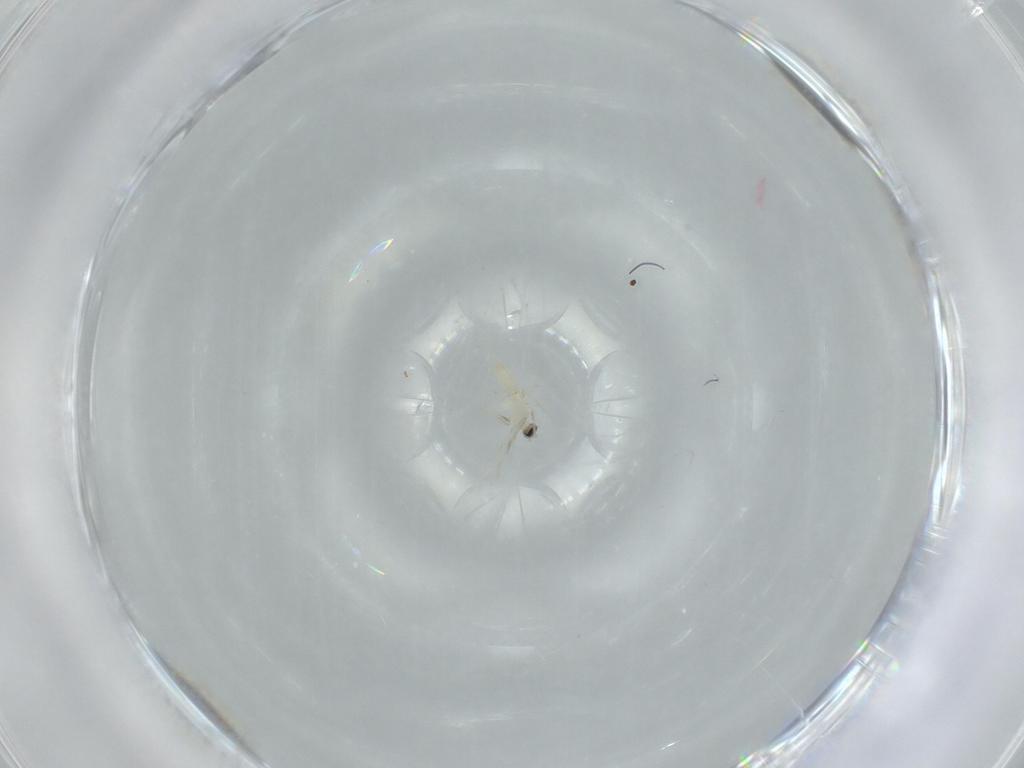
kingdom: Animalia
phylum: Arthropoda
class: Insecta
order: Diptera
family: Cecidomyiidae
